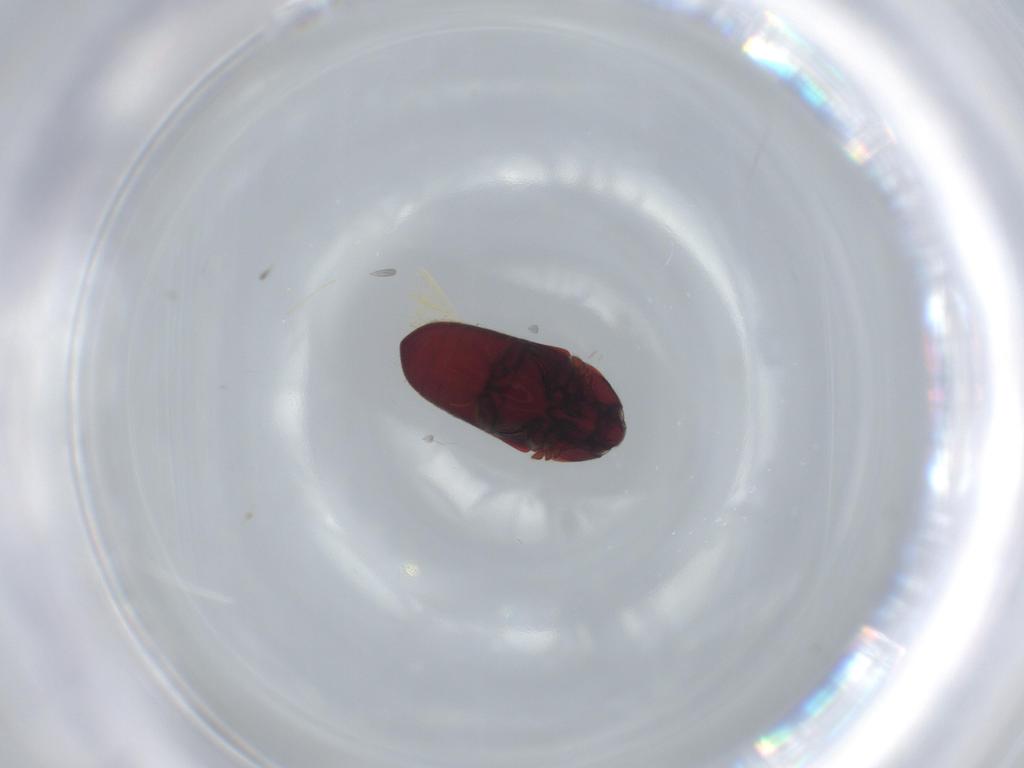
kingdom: Animalia
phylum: Arthropoda
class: Insecta
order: Coleoptera
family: Throscidae
